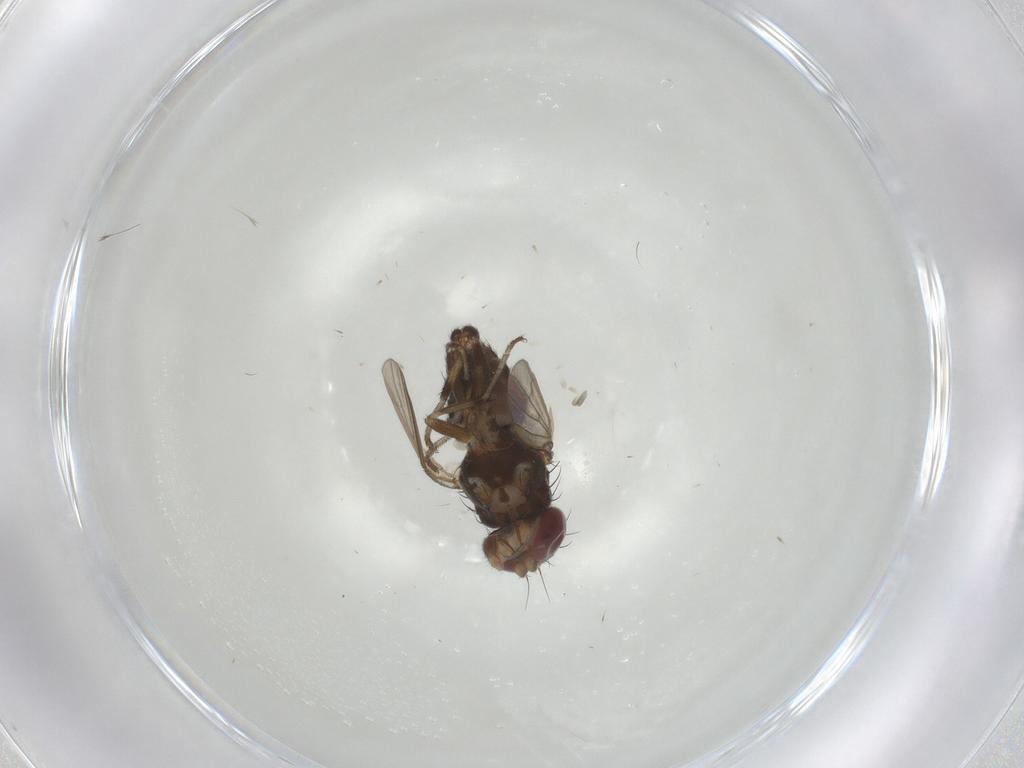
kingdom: Animalia
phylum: Arthropoda
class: Insecta
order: Diptera
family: Heleomyzidae
